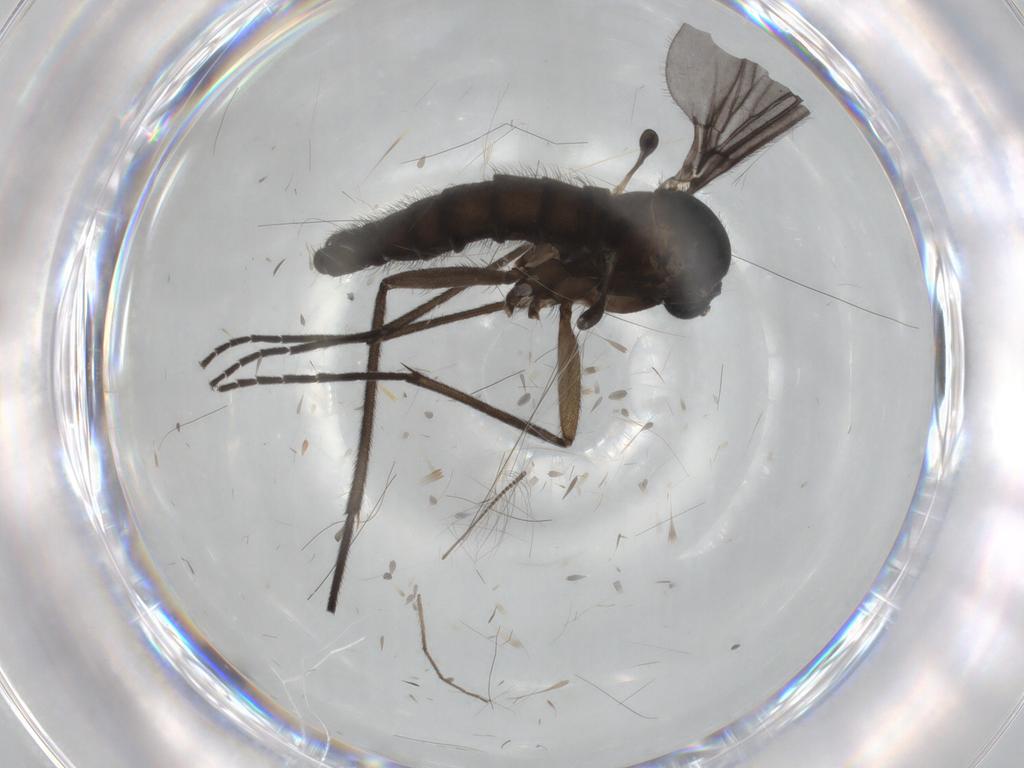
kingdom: Animalia
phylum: Arthropoda
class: Insecta
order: Diptera
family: Sciaridae
